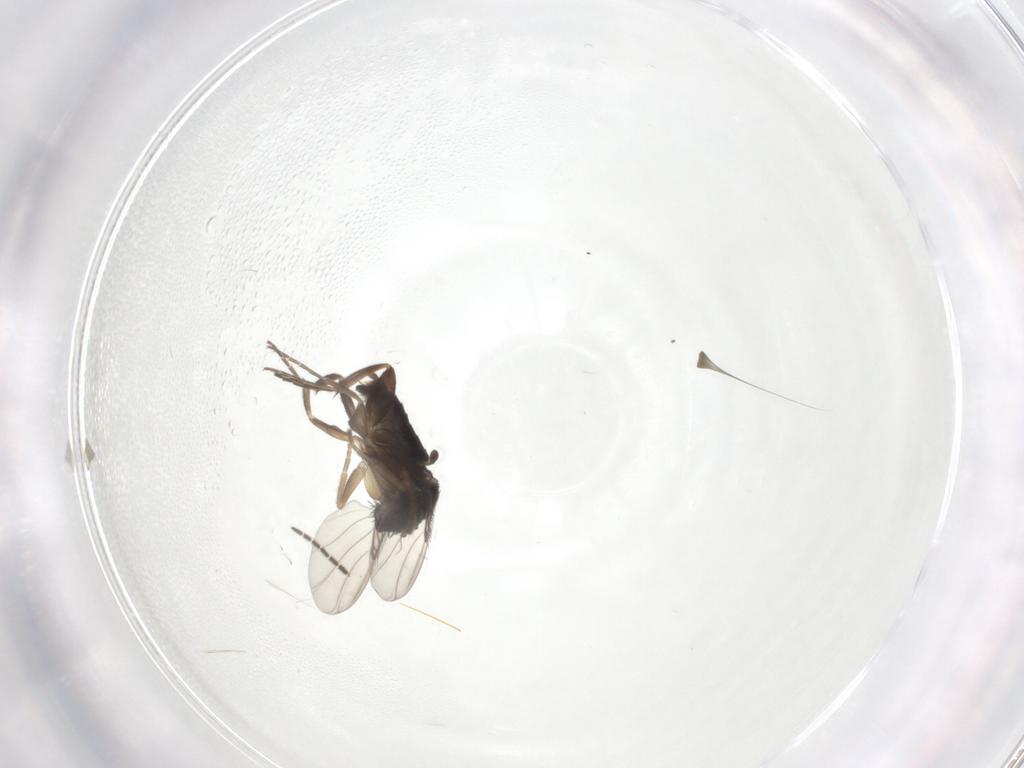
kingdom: Animalia
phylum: Arthropoda
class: Insecta
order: Diptera
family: Hybotidae
